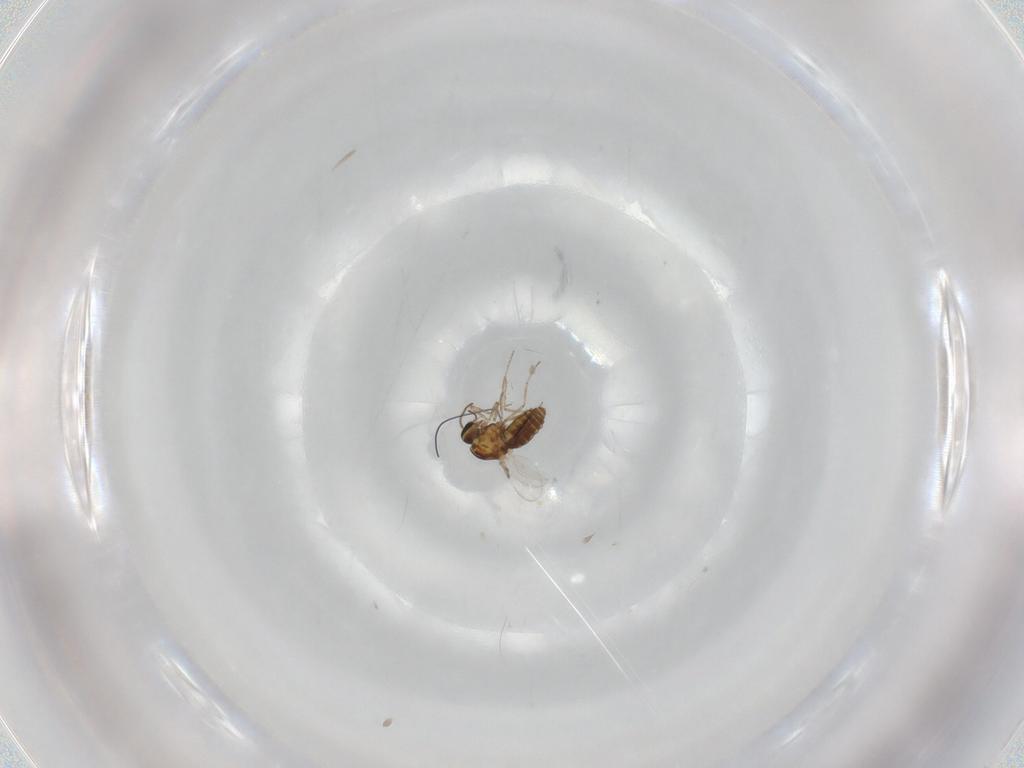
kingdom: Animalia
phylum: Arthropoda
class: Insecta
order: Diptera
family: Ceratopogonidae
